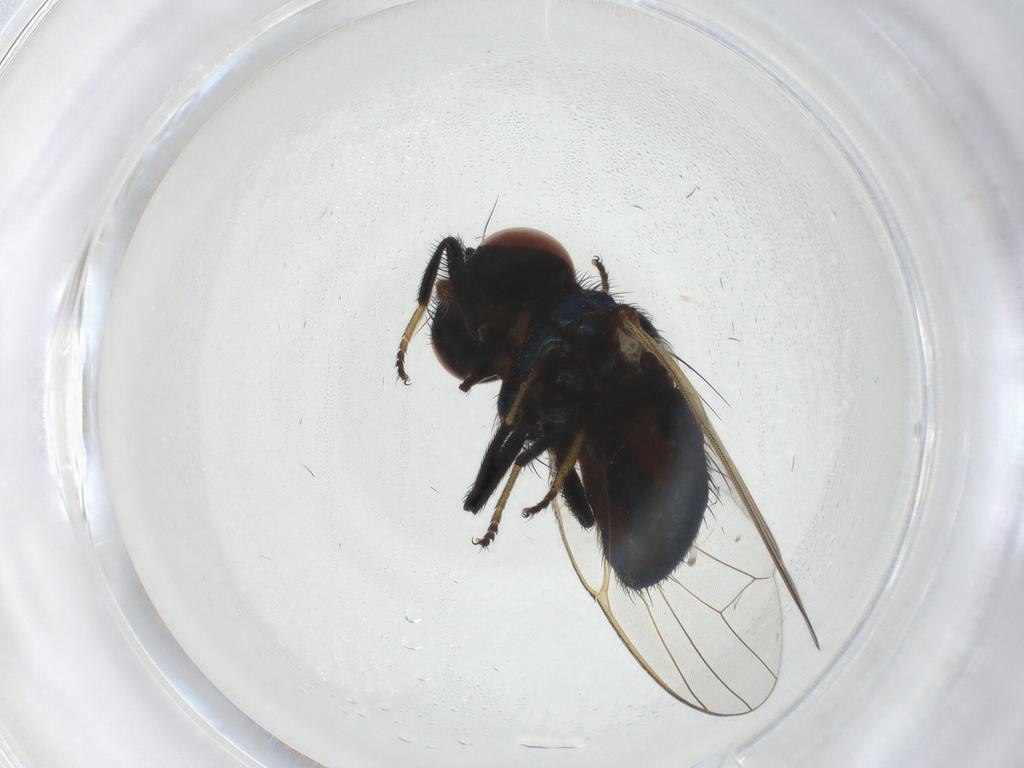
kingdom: Animalia
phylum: Arthropoda
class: Insecta
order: Diptera
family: Lonchaeidae
